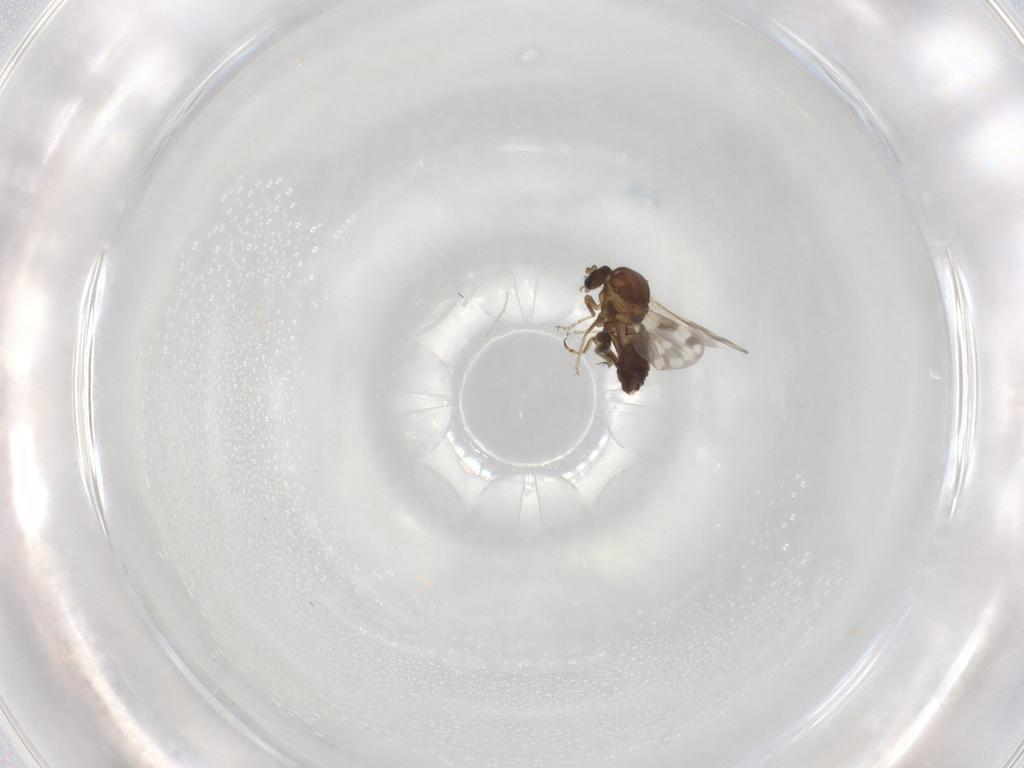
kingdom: Animalia
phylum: Arthropoda
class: Insecta
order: Diptera
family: Ceratopogonidae
